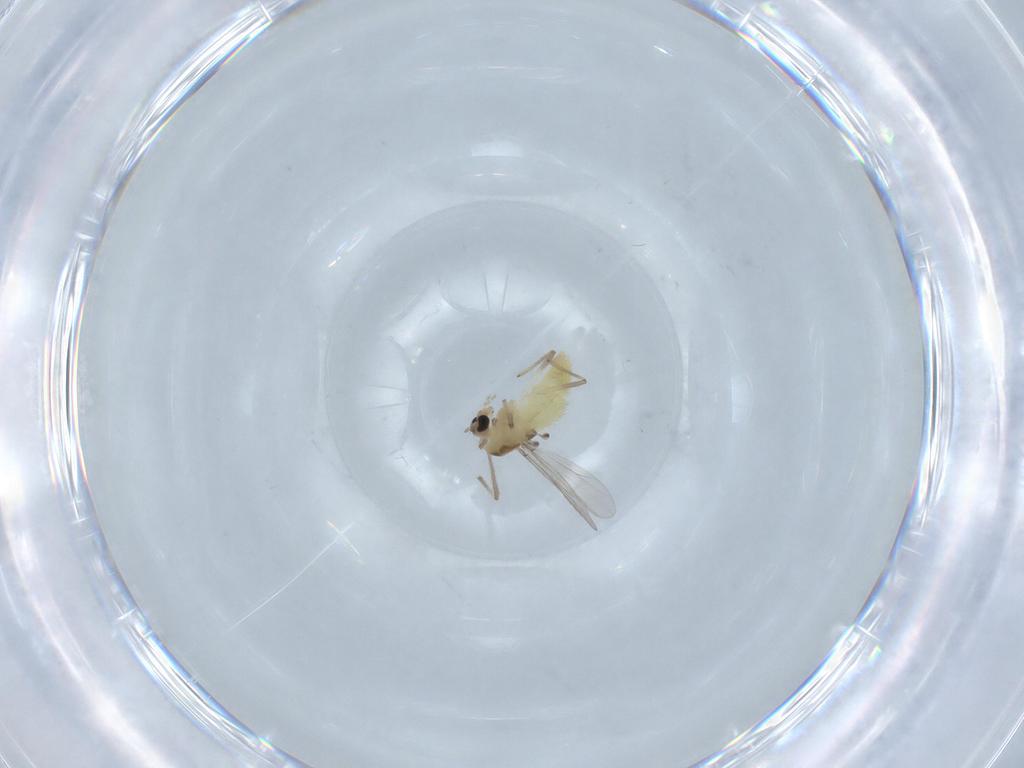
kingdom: Animalia
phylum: Arthropoda
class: Insecta
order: Diptera
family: Chironomidae
